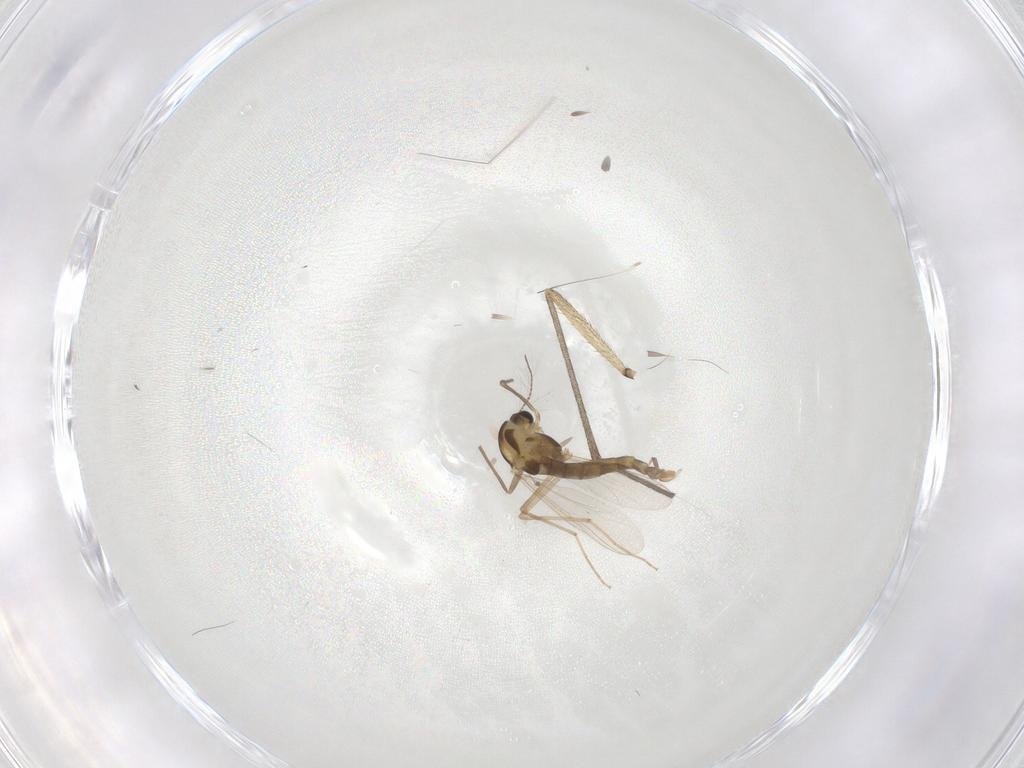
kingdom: Animalia
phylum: Arthropoda
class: Insecta
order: Diptera
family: Chironomidae
